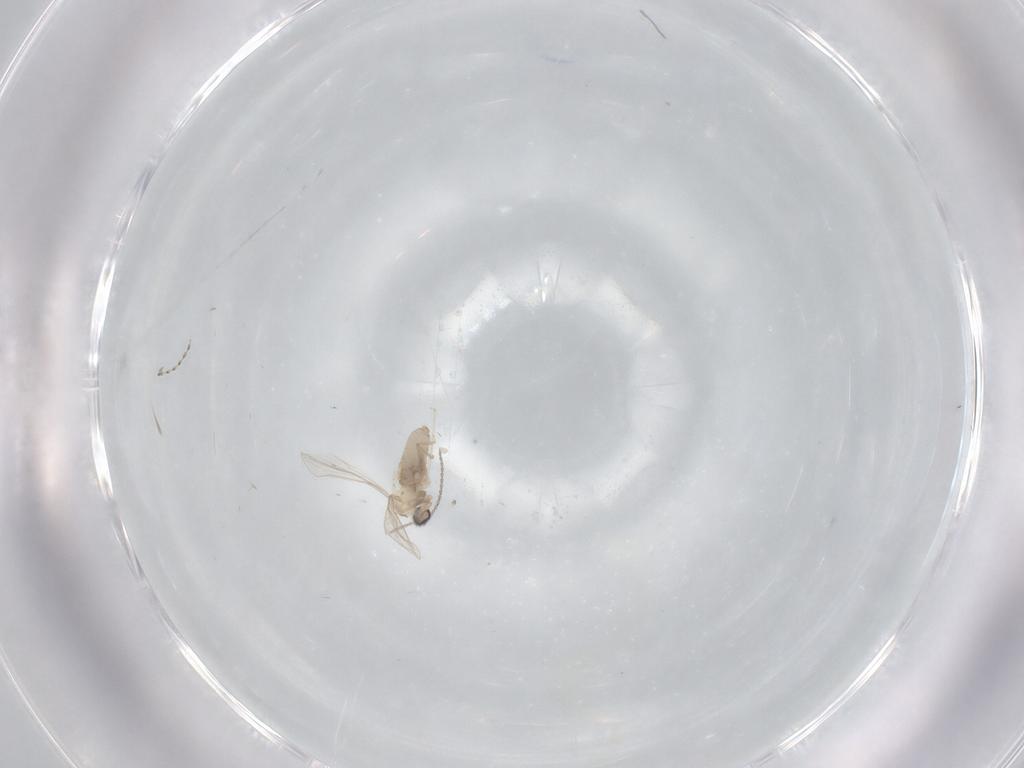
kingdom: Animalia
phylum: Arthropoda
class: Insecta
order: Diptera
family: Cecidomyiidae
